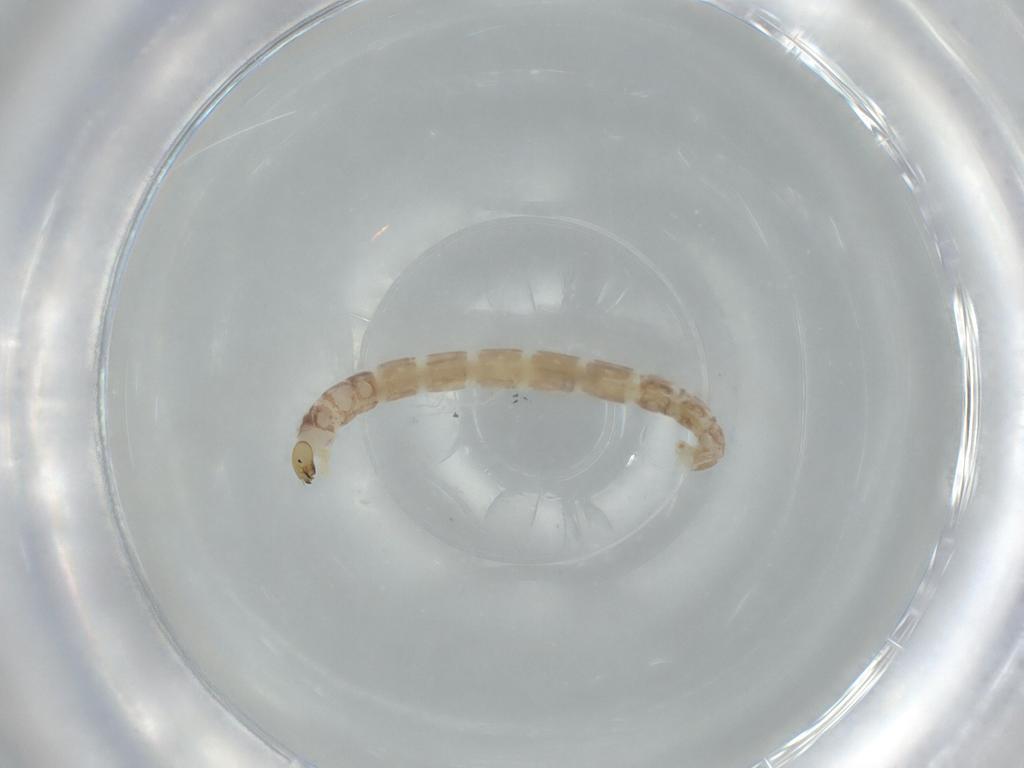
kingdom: Animalia
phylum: Arthropoda
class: Insecta
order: Diptera
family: Chironomidae
